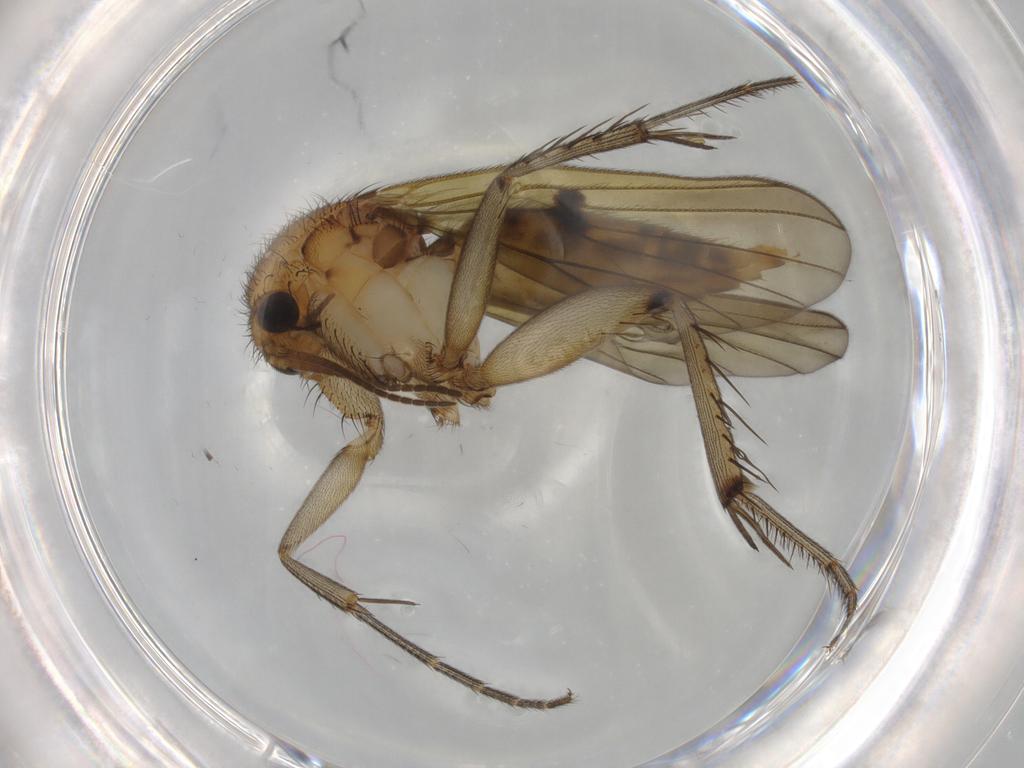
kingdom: Animalia
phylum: Arthropoda
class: Insecta
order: Diptera
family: Mycetophilidae
